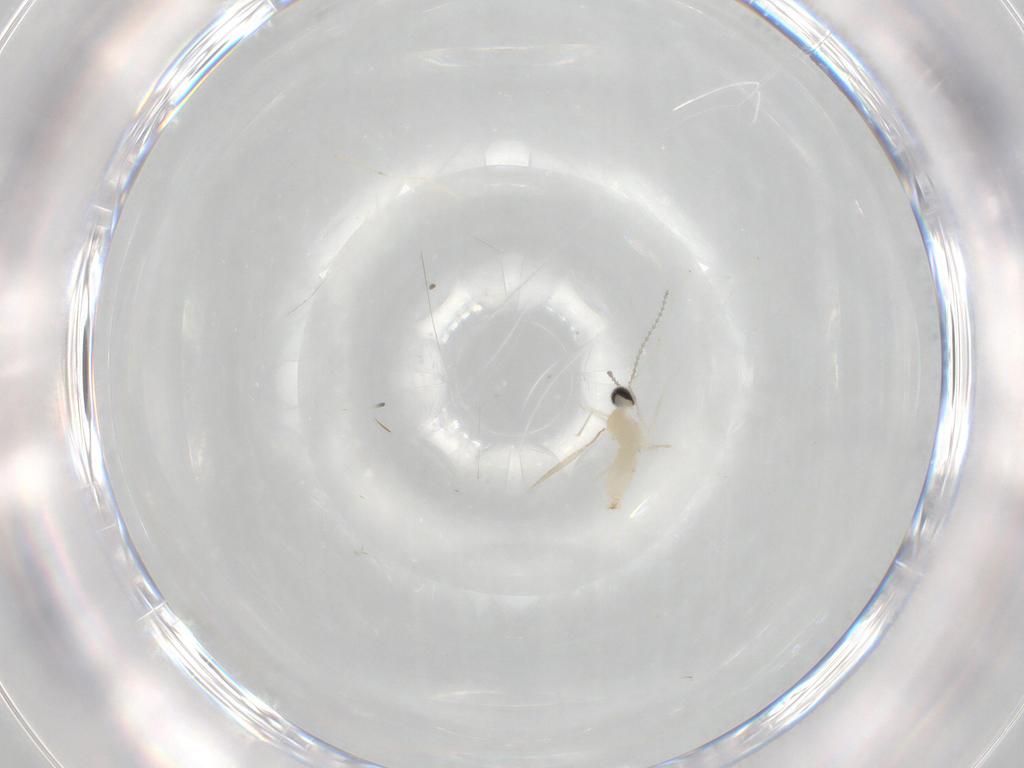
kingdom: Animalia
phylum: Arthropoda
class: Insecta
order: Diptera
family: Cecidomyiidae
